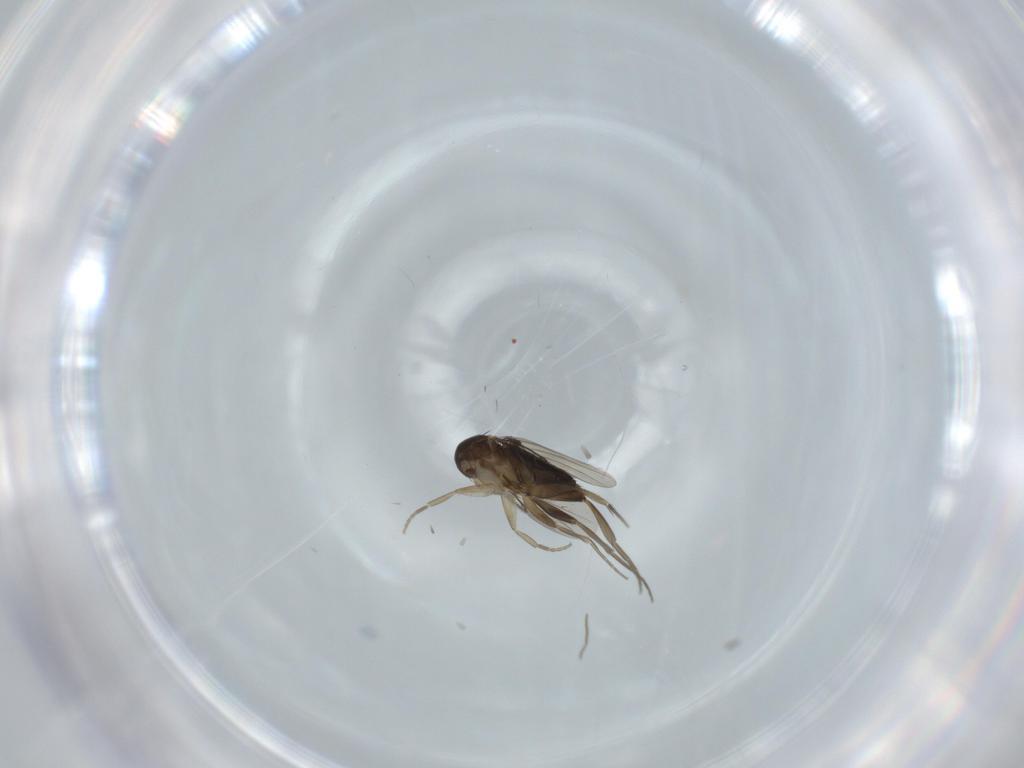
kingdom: Animalia
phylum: Arthropoda
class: Insecta
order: Diptera
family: Phoridae
